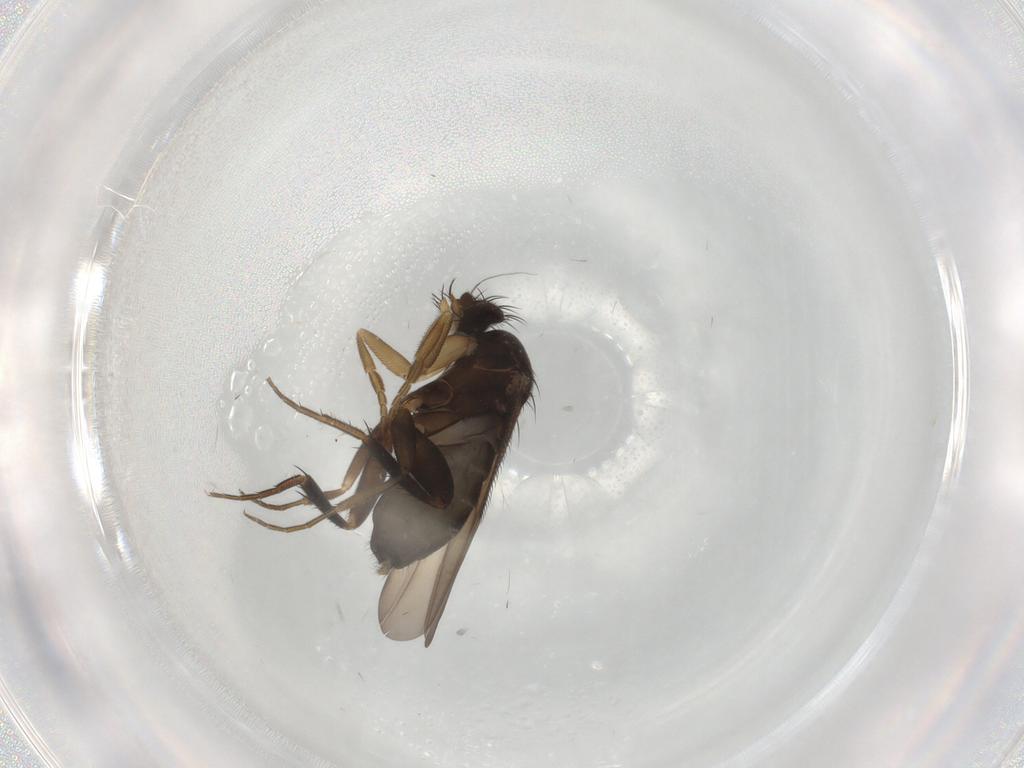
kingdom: Animalia
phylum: Arthropoda
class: Insecta
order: Diptera
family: Phoridae
